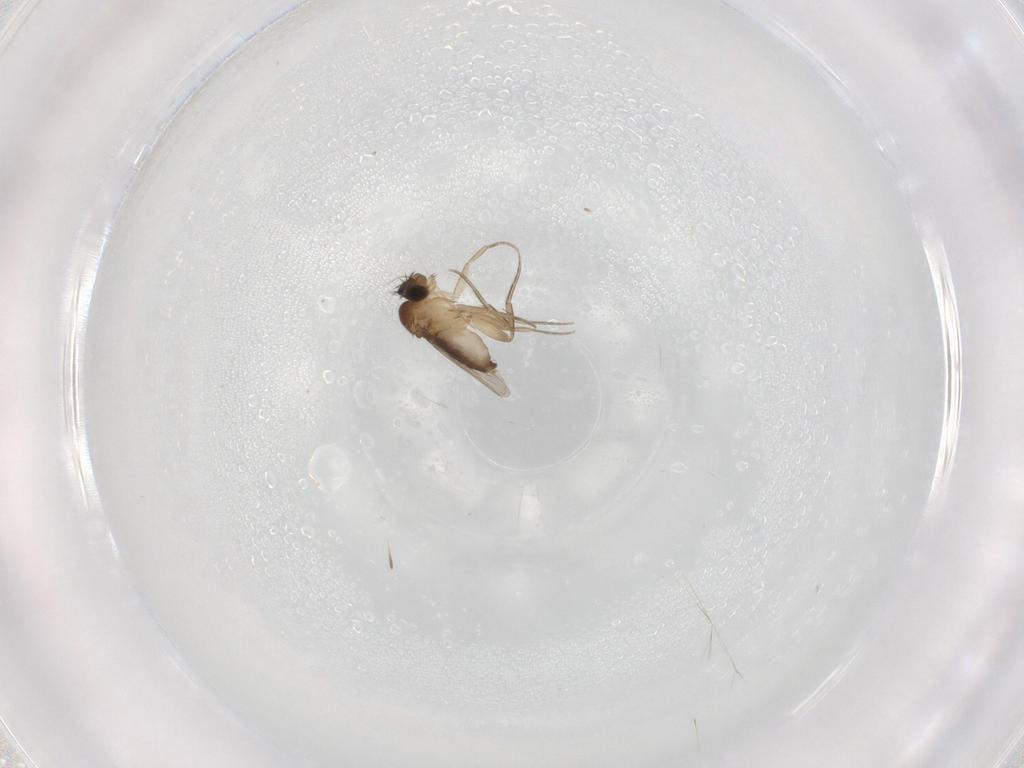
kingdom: Animalia
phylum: Arthropoda
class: Insecta
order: Diptera
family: Phoridae
